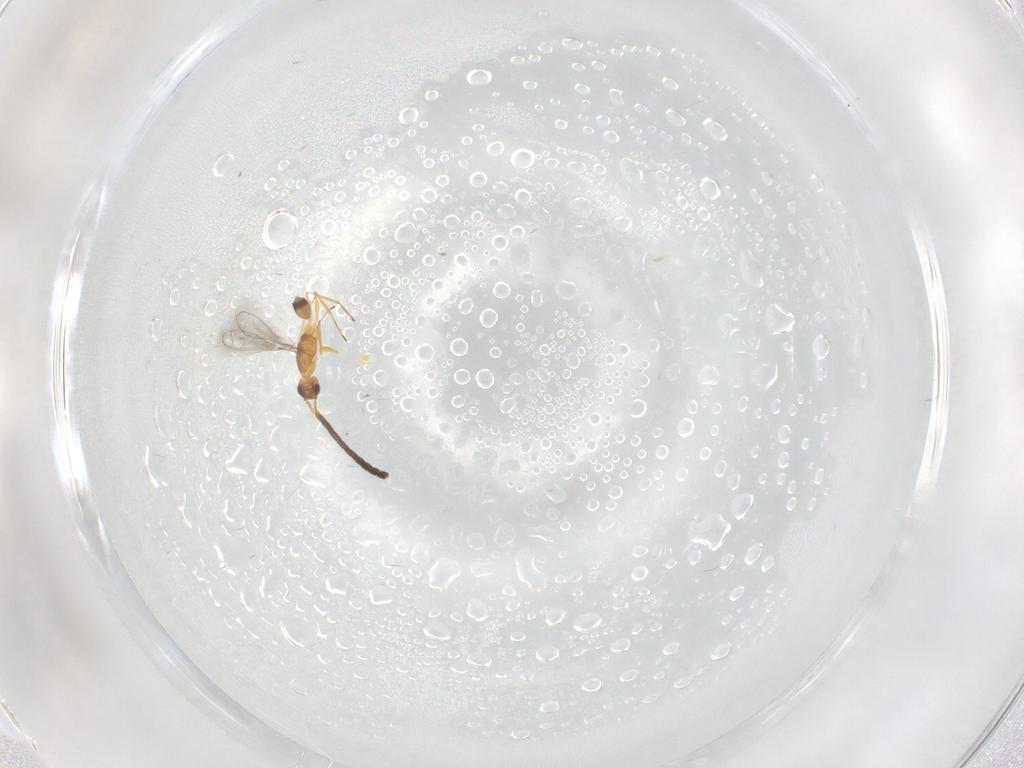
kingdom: Animalia
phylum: Arthropoda
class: Insecta
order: Hymenoptera
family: Mymaridae
